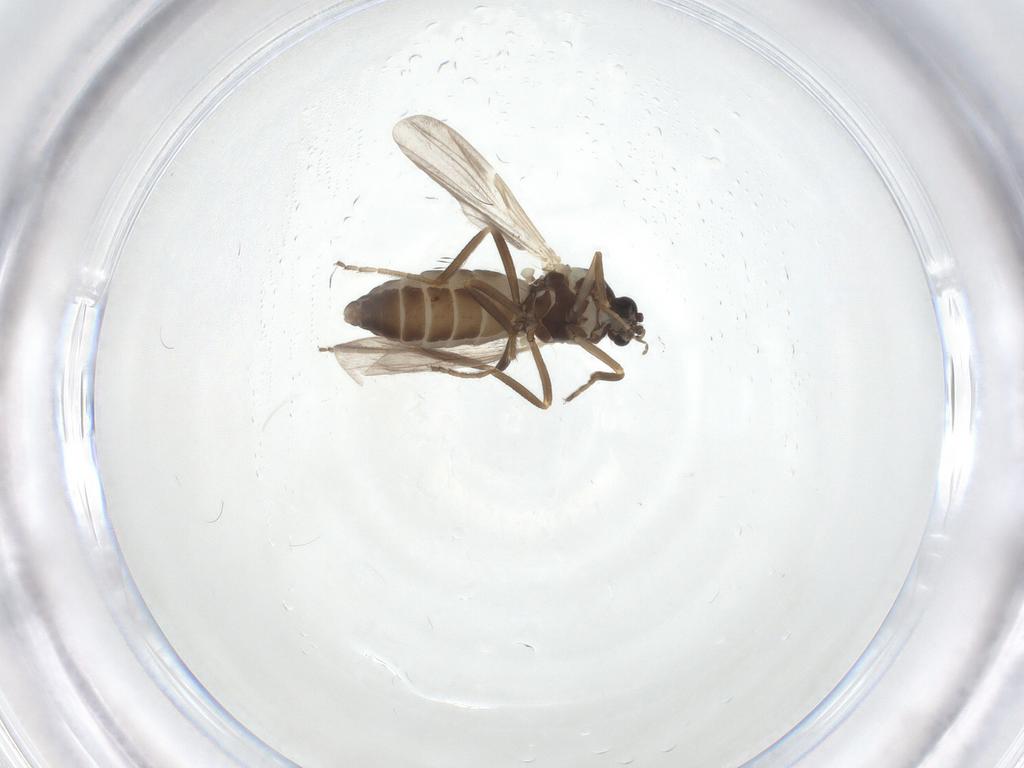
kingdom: Animalia
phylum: Arthropoda
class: Insecta
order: Diptera
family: Ceratopogonidae
